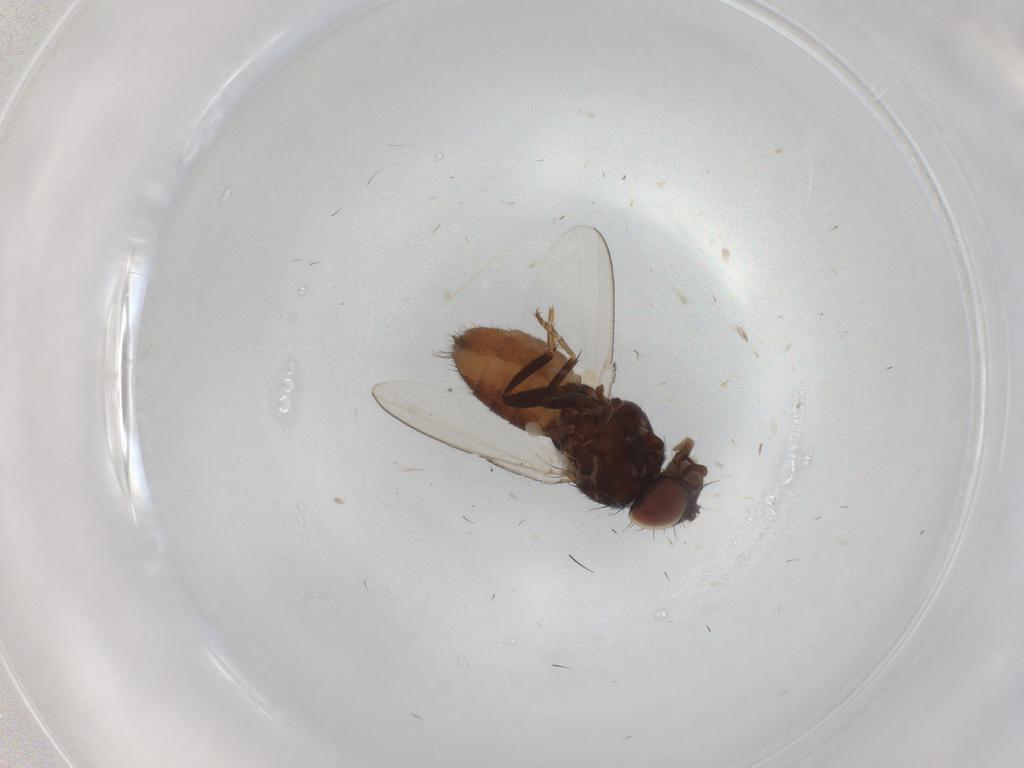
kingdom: Animalia
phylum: Arthropoda
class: Insecta
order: Diptera
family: Milichiidae
